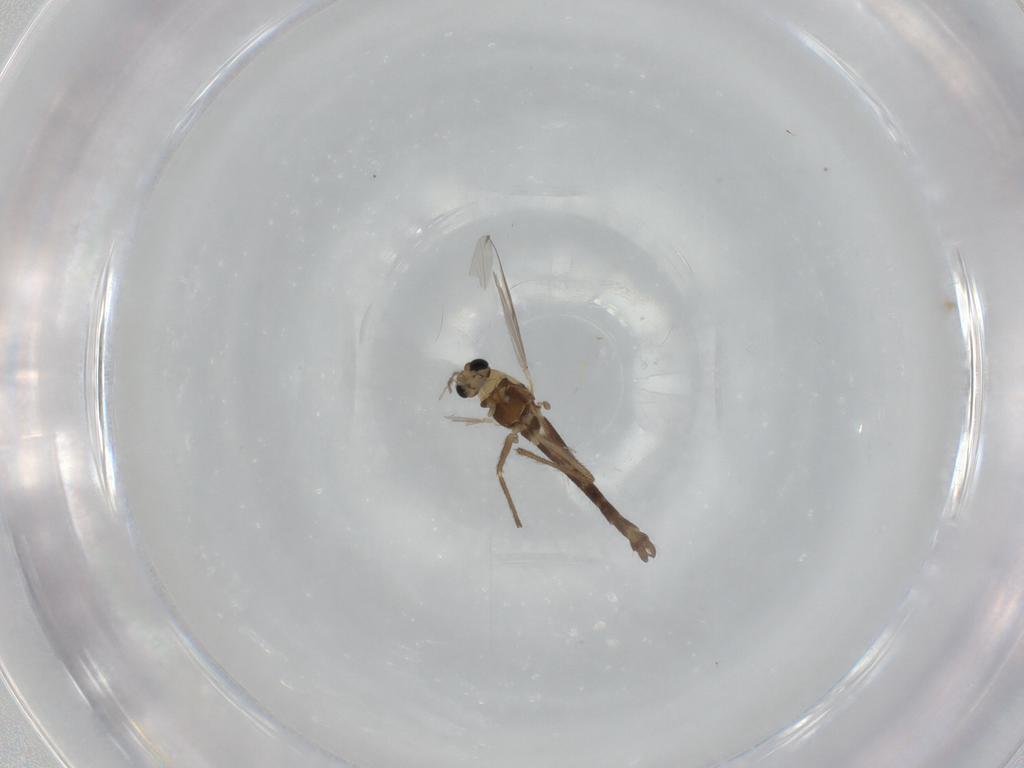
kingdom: Animalia
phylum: Arthropoda
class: Insecta
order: Diptera
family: Chironomidae
